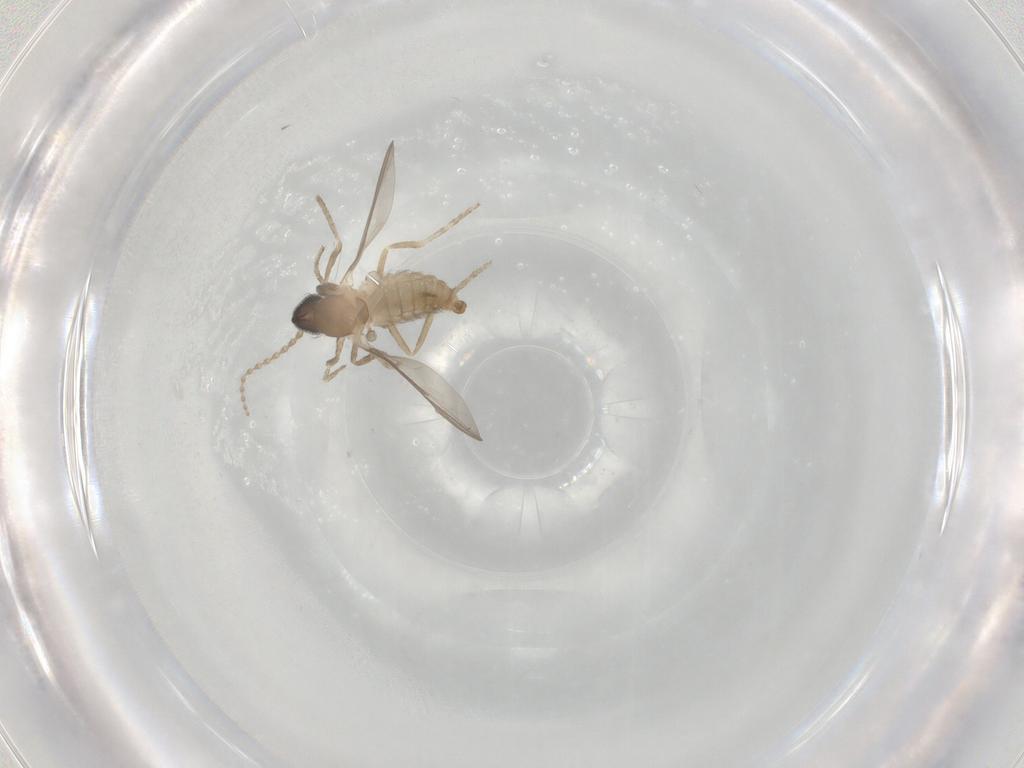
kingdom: Animalia
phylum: Arthropoda
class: Insecta
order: Diptera
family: Cecidomyiidae
